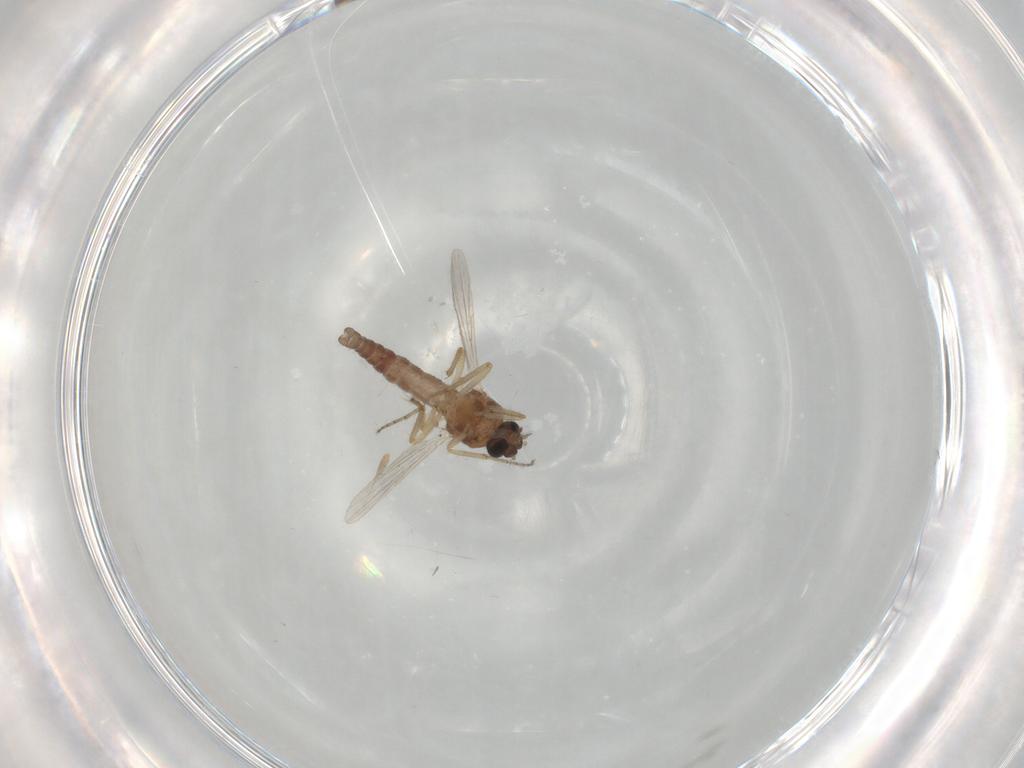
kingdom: Animalia
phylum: Arthropoda
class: Insecta
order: Diptera
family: Ceratopogonidae
